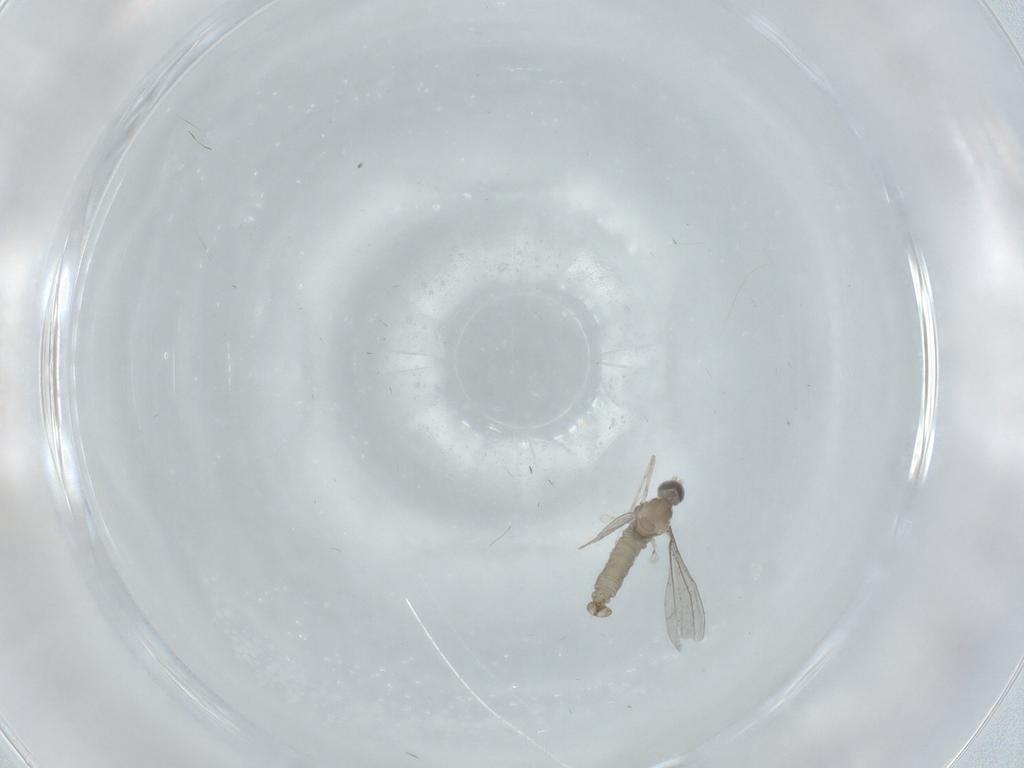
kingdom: Animalia
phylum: Arthropoda
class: Insecta
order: Diptera
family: Cecidomyiidae
